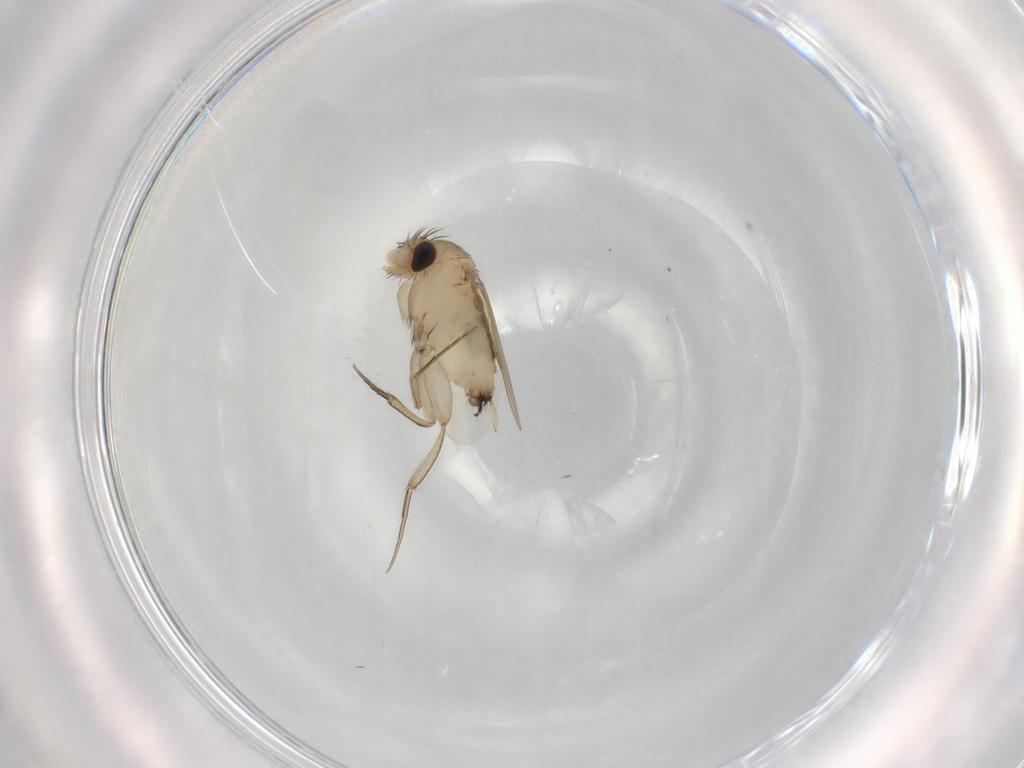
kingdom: Animalia
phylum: Arthropoda
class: Insecta
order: Diptera
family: Phoridae
